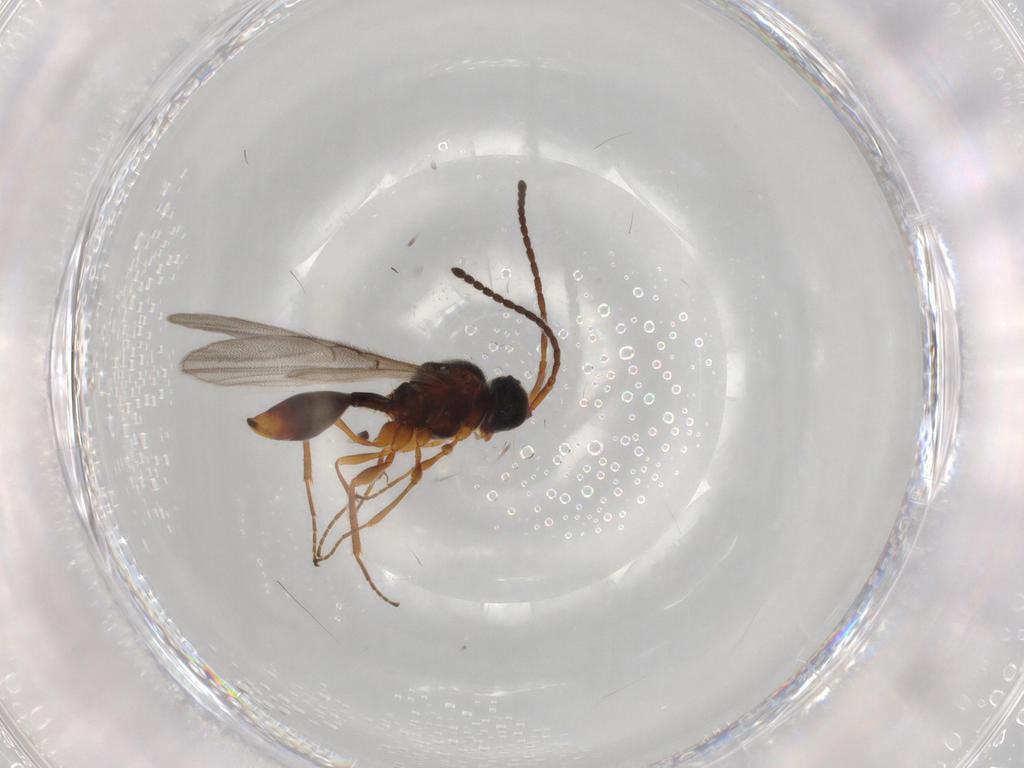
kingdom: Animalia
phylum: Arthropoda
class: Insecta
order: Hymenoptera
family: Diapriidae
